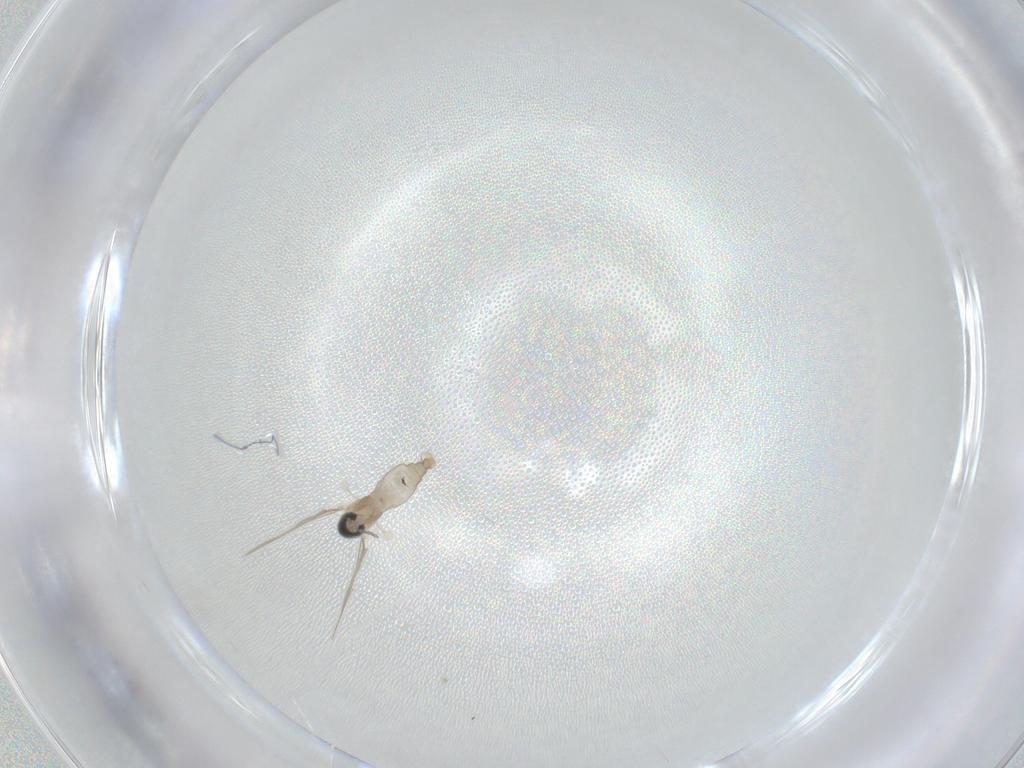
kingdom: Animalia
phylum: Arthropoda
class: Insecta
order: Diptera
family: Cecidomyiidae
